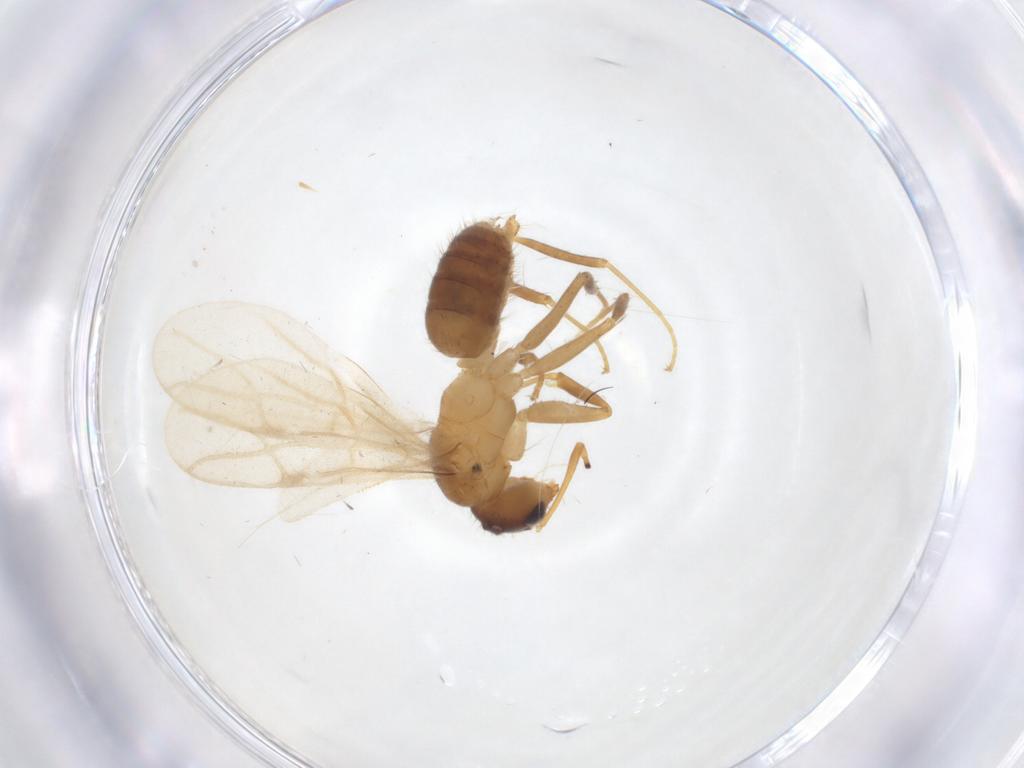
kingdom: Animalia
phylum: Arthropoda
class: Insecta
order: Hymenoptera
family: Formicidae
